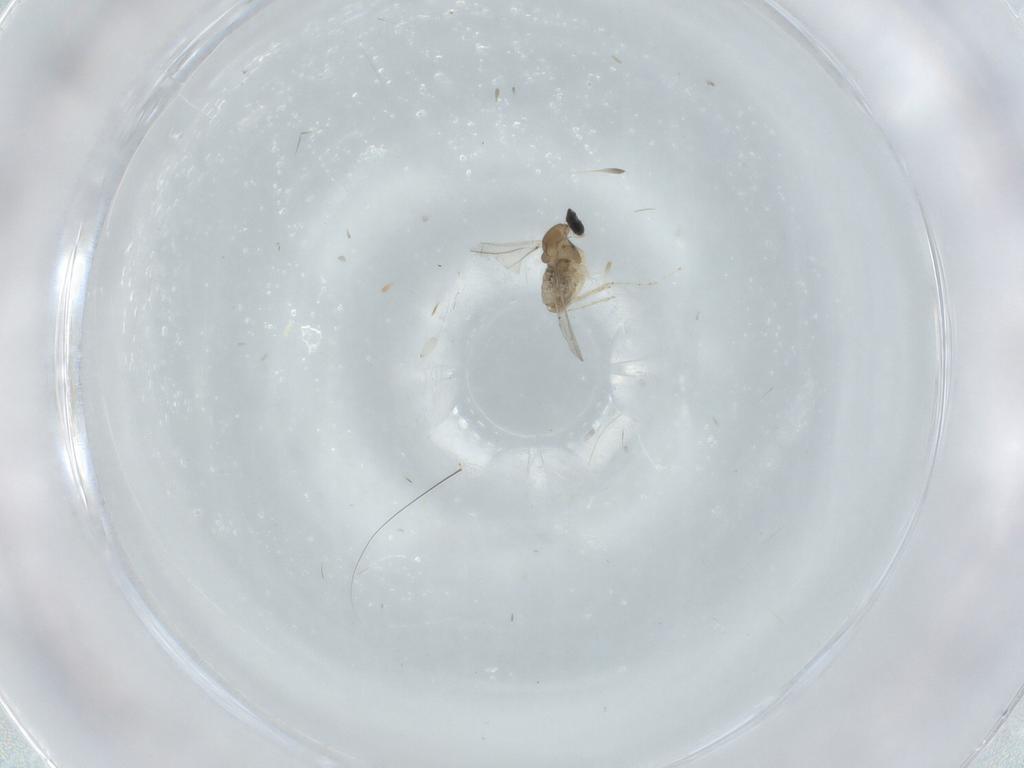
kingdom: Animalia
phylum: Arthropoda
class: Insecta
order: Diptera
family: Cecidomyiidae
